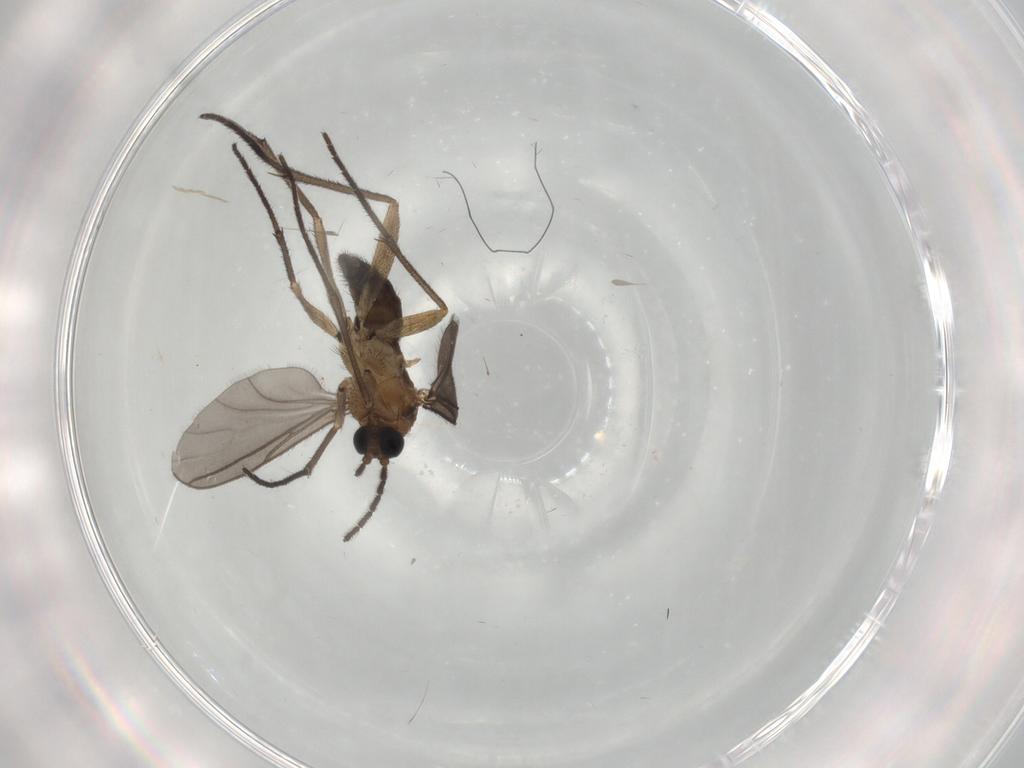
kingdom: Animalia
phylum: Arthropoda
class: Insecta
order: Diptera
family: Sciaridae
